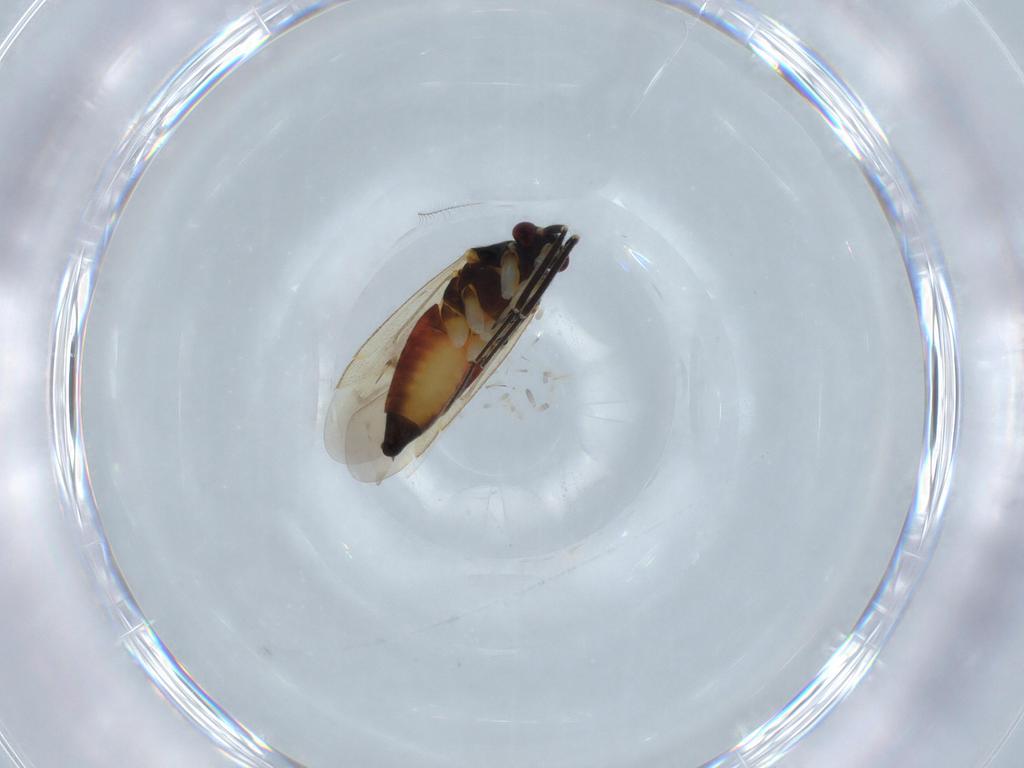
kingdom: Animalia
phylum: Arthropoda
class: Insecta
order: Hemiptera
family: Miridae
